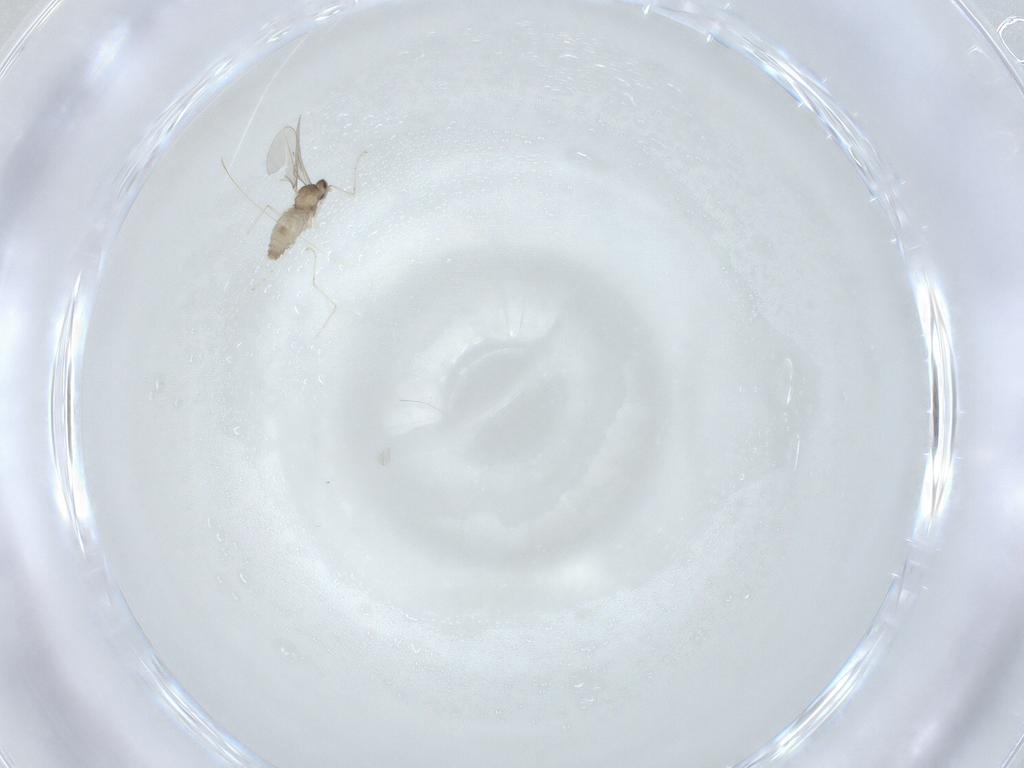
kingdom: Animalia
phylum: Arthropoda
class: Insecta
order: Diptera
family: Cecidomyiidae
